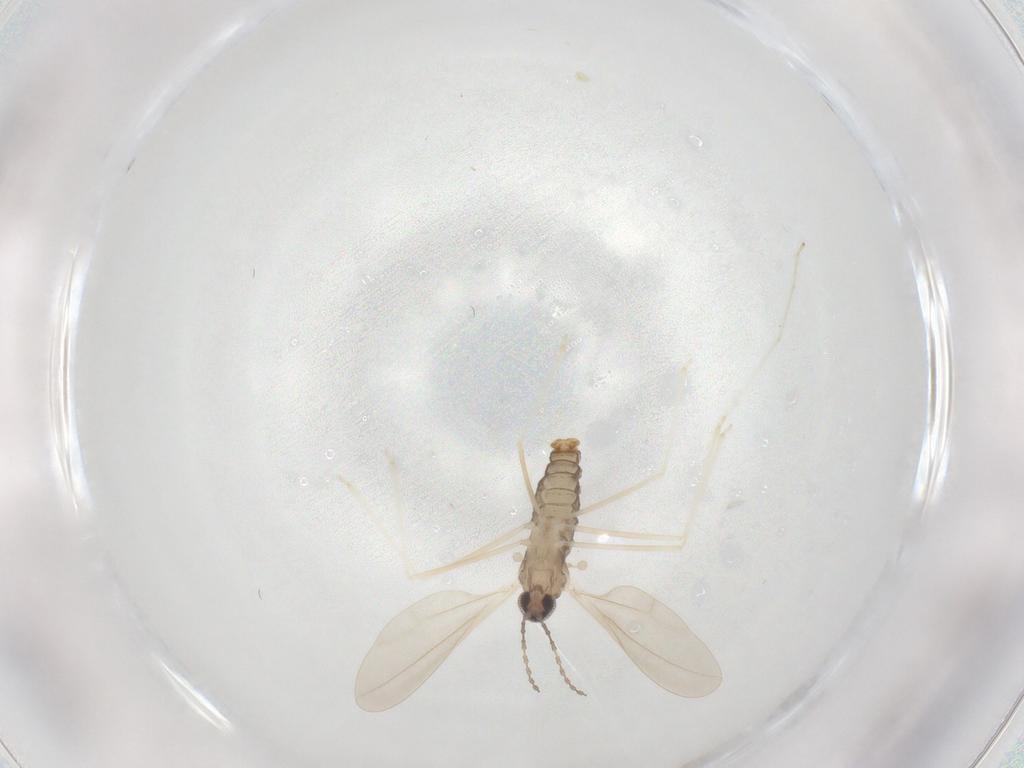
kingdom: Animalia
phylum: Arthropoda
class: Insecta
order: Diptera
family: Cecidomyiidae
